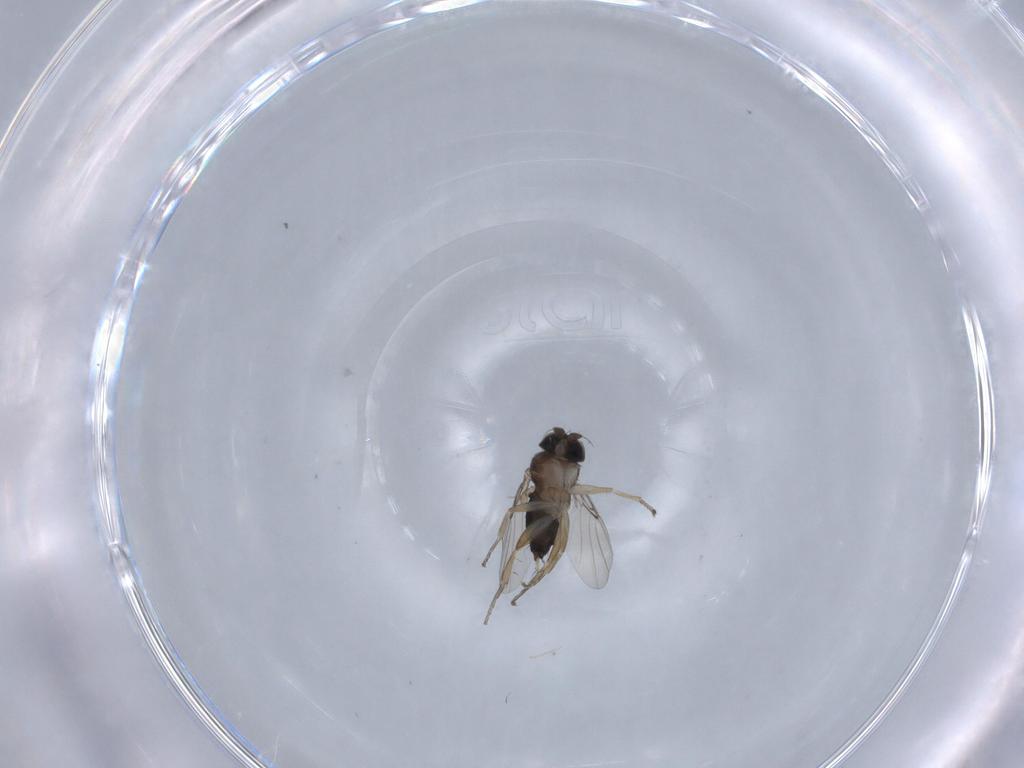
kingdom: Animalia
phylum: Arthropoda
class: Insecta
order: Diptera
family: Phoridae
